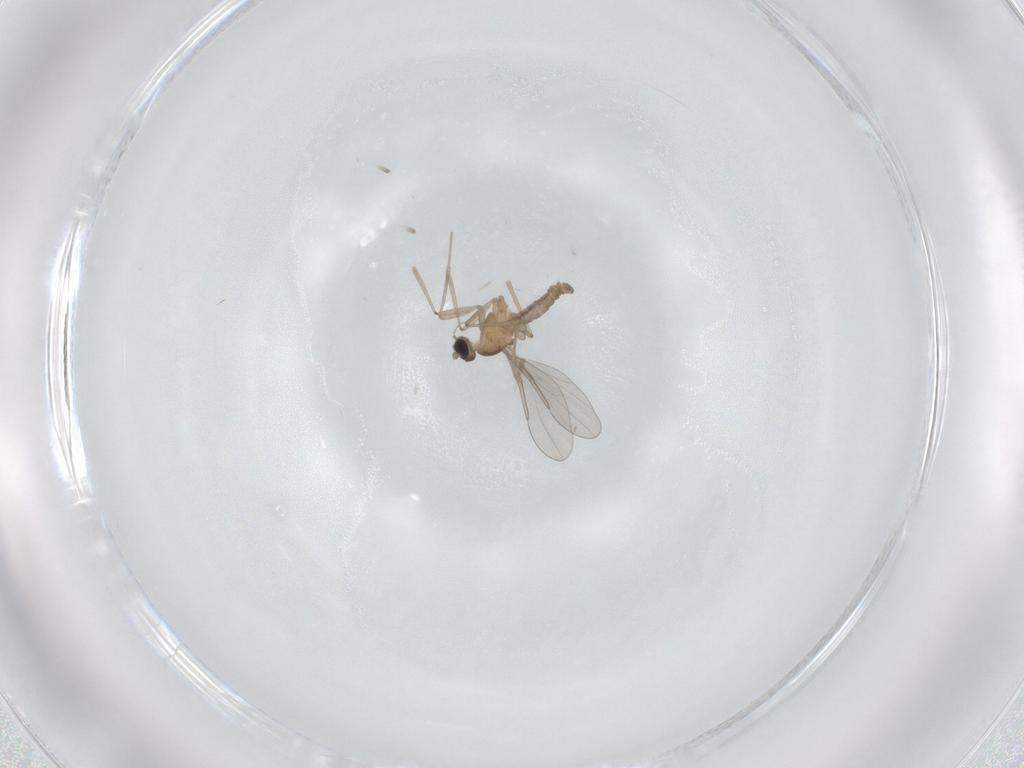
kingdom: Animalia
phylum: Arthropoda
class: Insecta
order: Diptera
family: Cecidomyiidae
